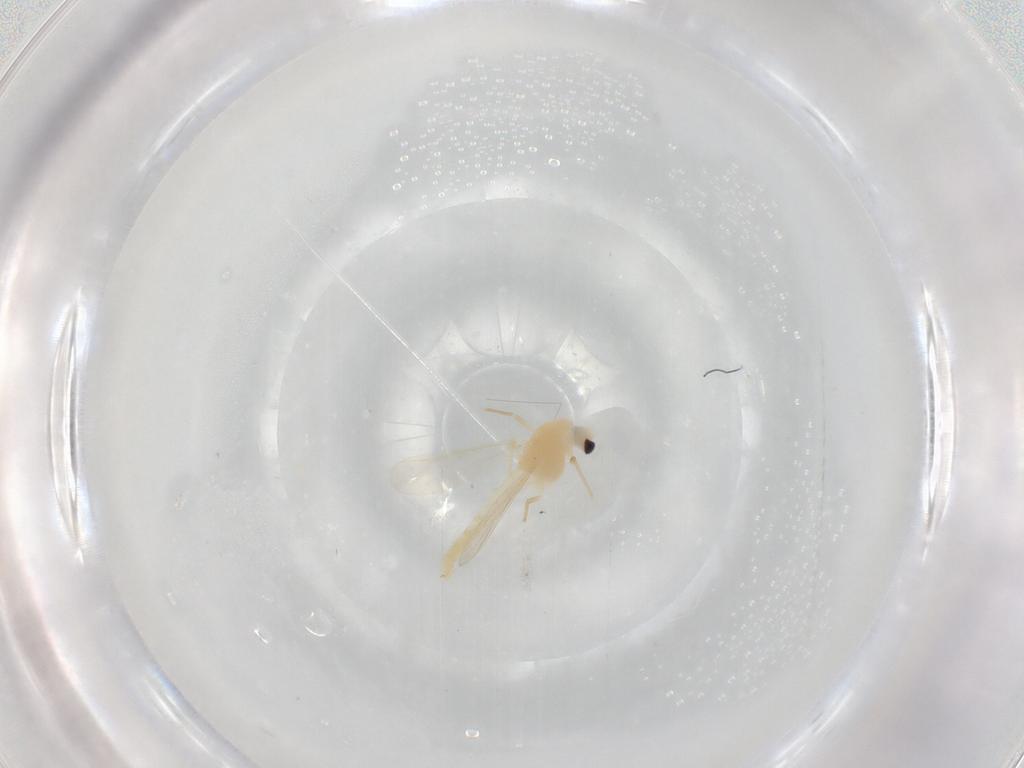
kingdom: Animalia
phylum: Arthropoda
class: Insecta
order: Diptera
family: Chironomidae
